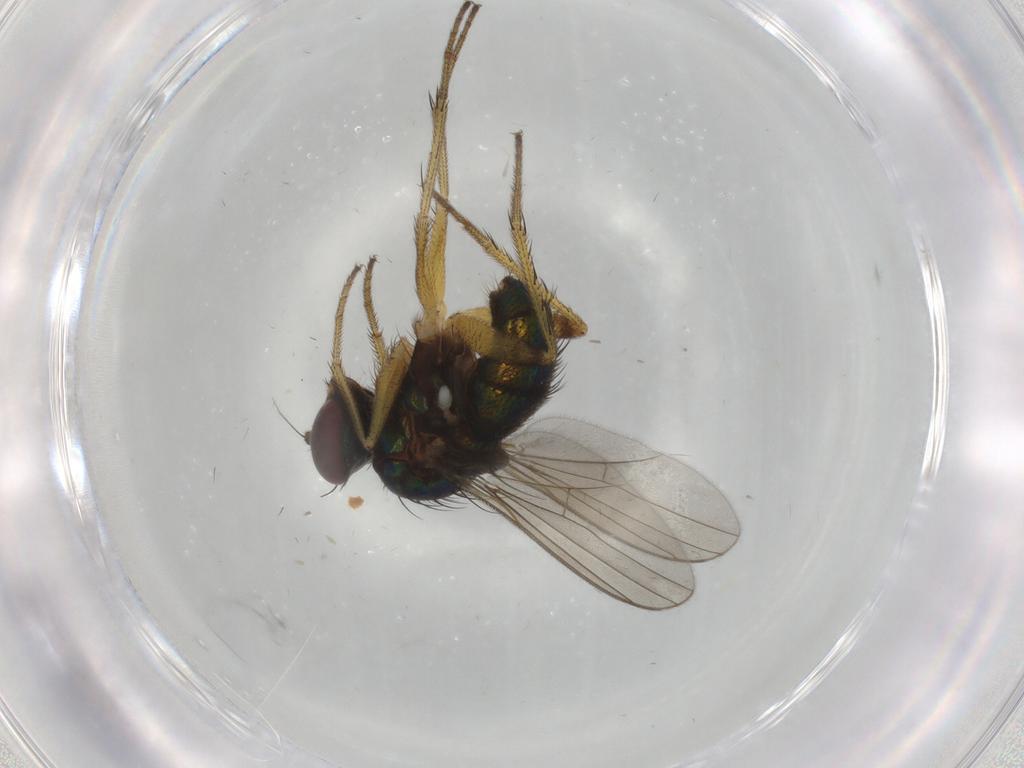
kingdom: Animalia
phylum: Arthropoda
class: Insecta
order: Diptera
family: Dolichopodidae
